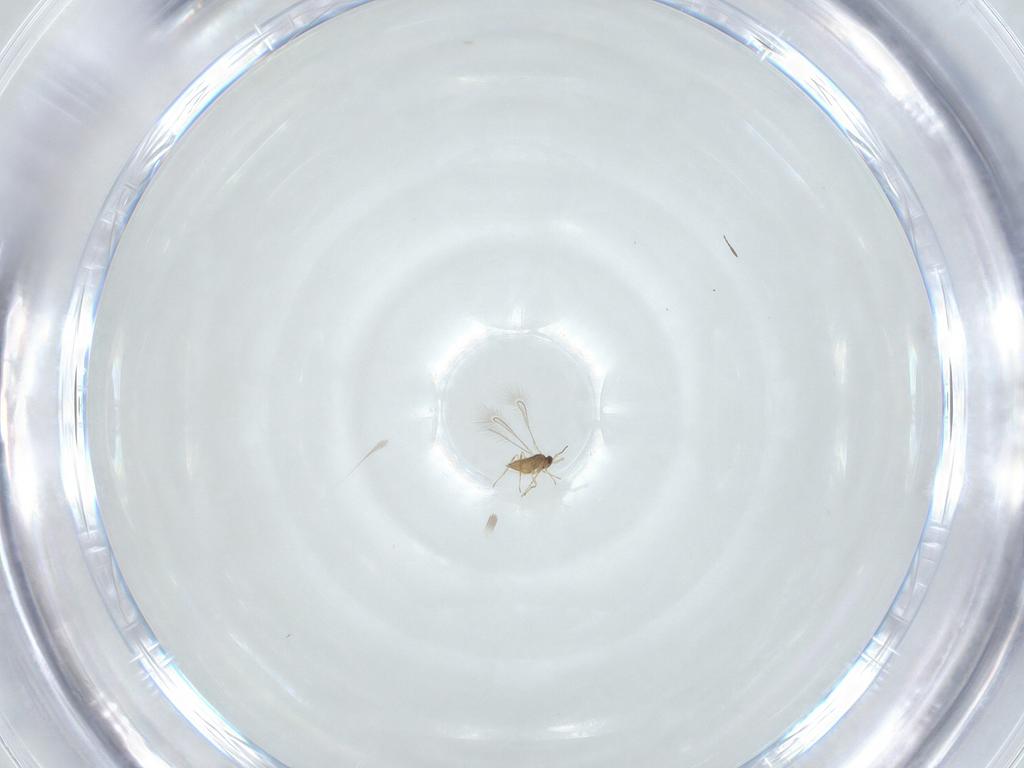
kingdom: Animalia
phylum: Arthropoda
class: Insecta
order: Hymenoptera
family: Mymaridae
